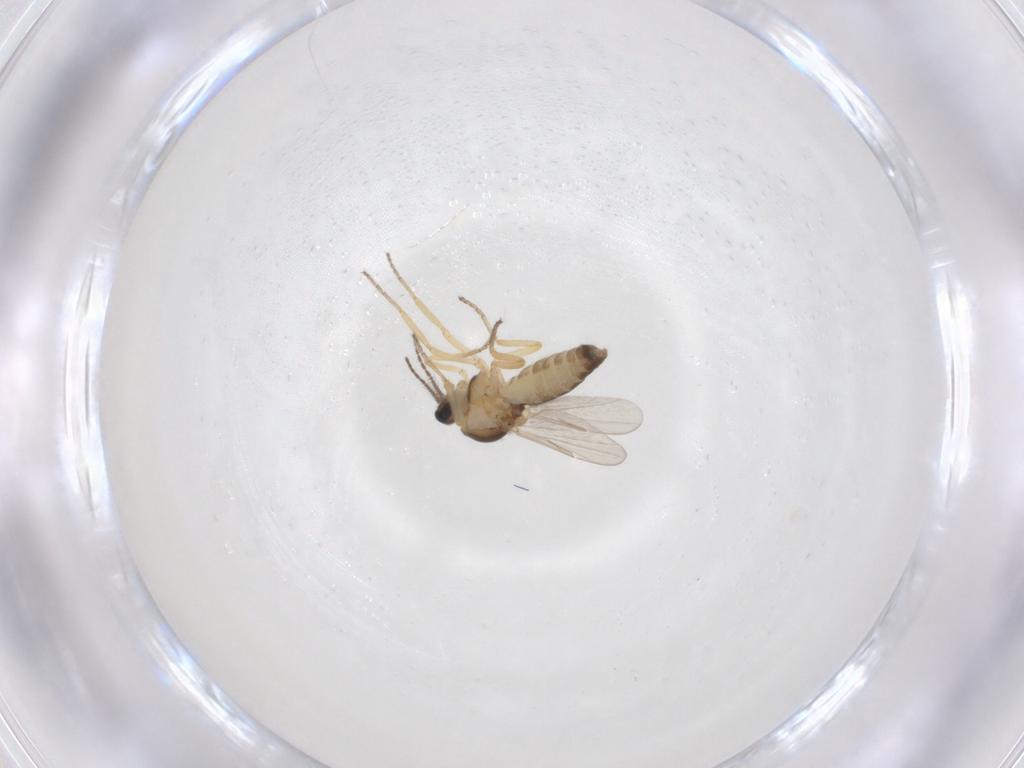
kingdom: Animalia
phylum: Arthropoda
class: Insecta
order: Diptera
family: Ceratopogonidae
